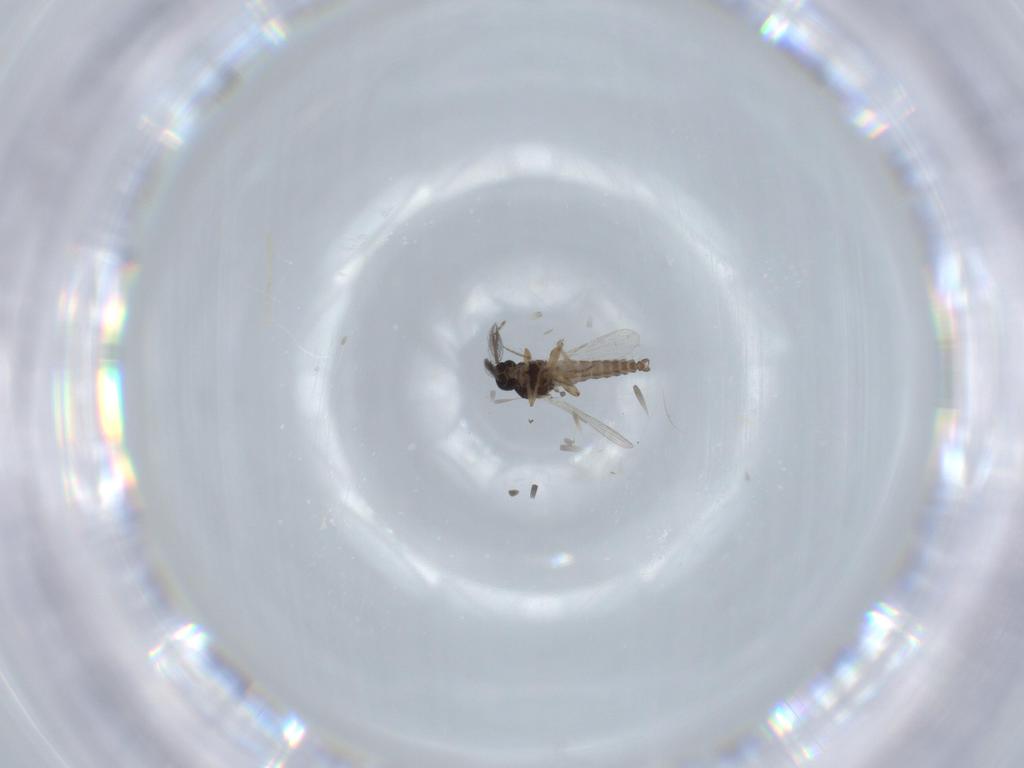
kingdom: Animalia
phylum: Arthropoda
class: Insecta
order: Diptera
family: Ceratopogonidae
